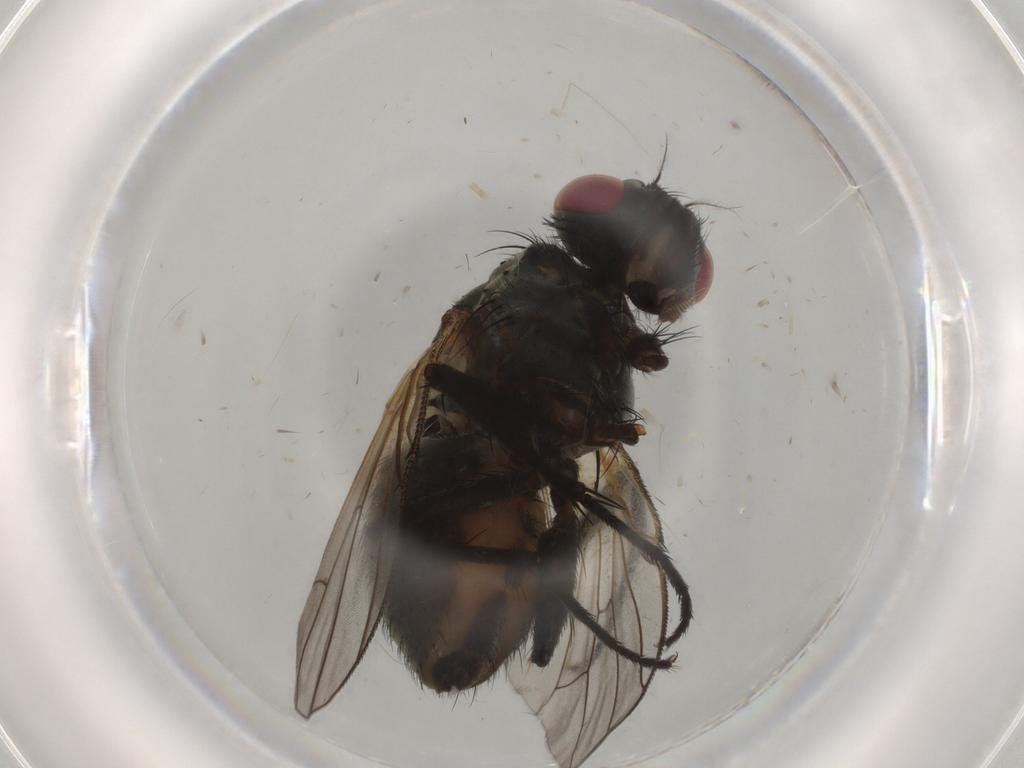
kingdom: Animalia
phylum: Arthropoda
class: Insecta
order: Diptera
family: Muscidae
